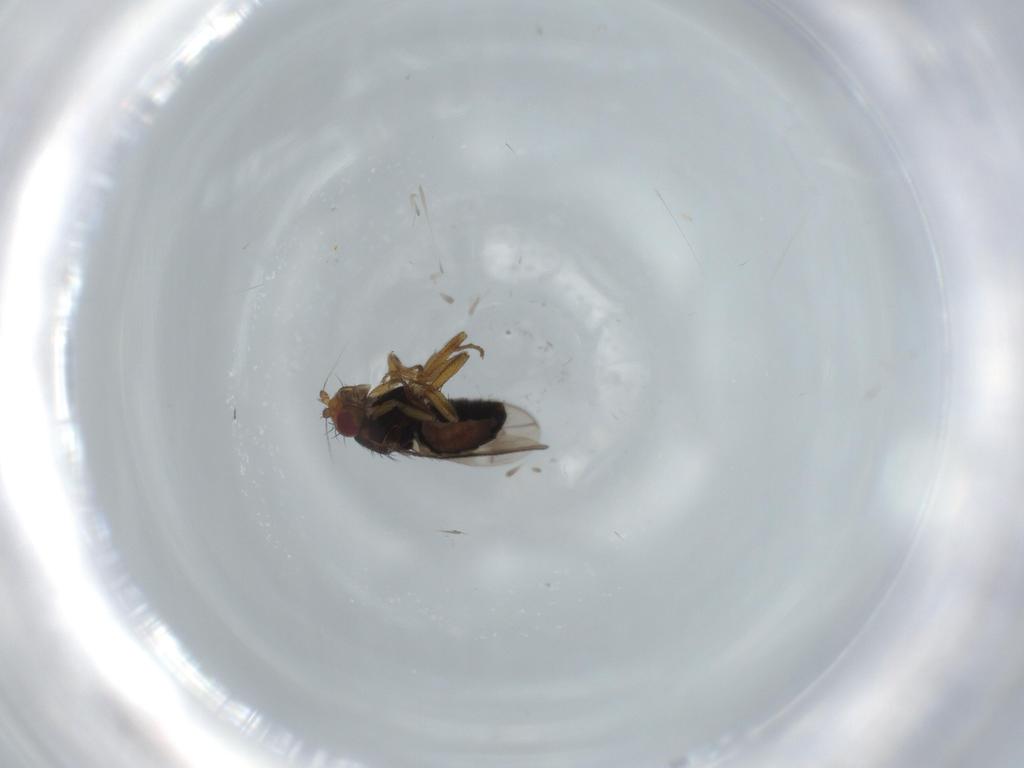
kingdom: Animalia
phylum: Arthropoda
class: Insecta
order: Diptera
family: Sphaeroceridae
